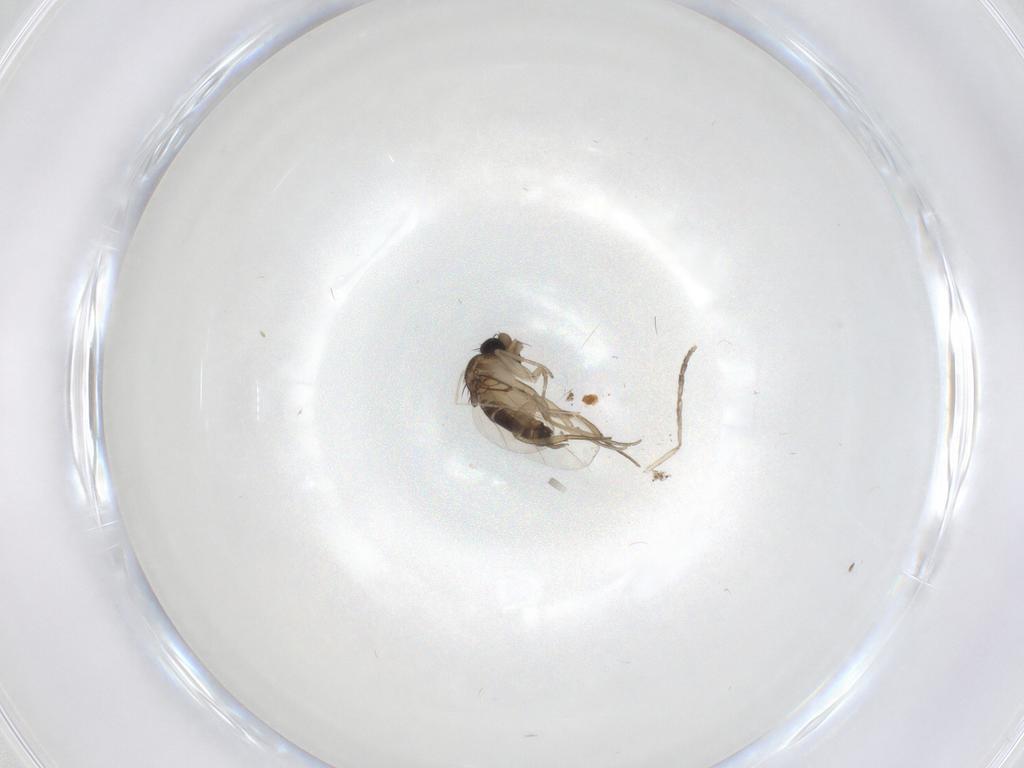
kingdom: Animalia
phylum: Arthropoda
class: Insecta
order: Diptera
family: Phoridae
